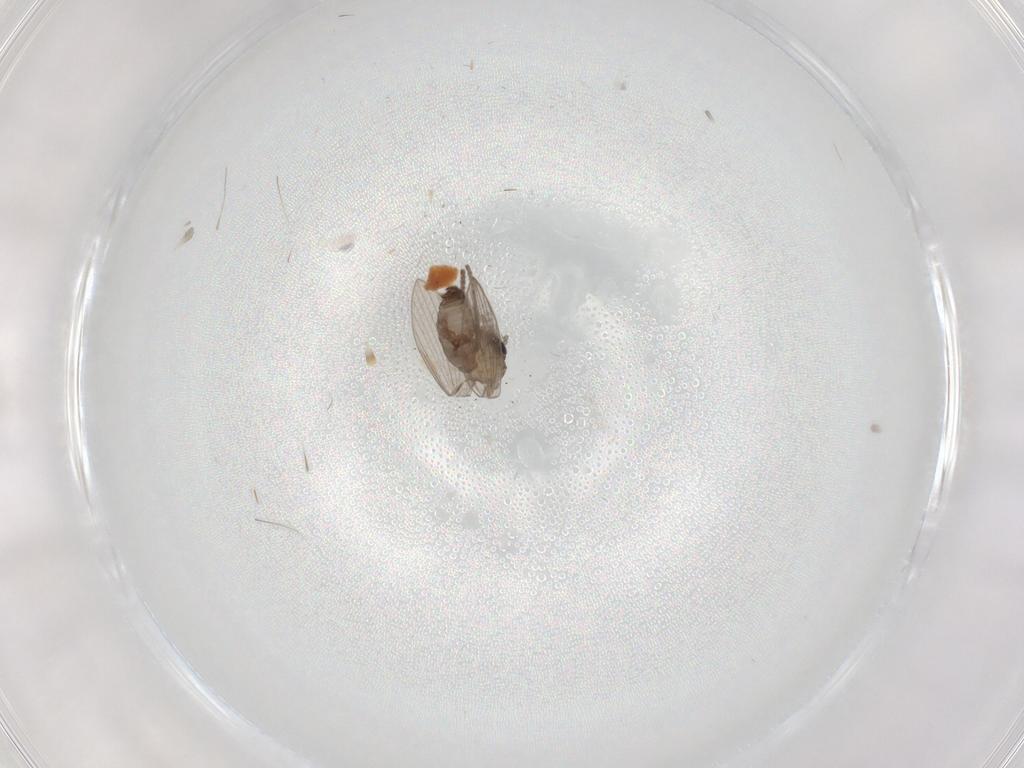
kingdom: Animalia
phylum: Arthropoda
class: Insecta
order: Diptera
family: Psychodidae
